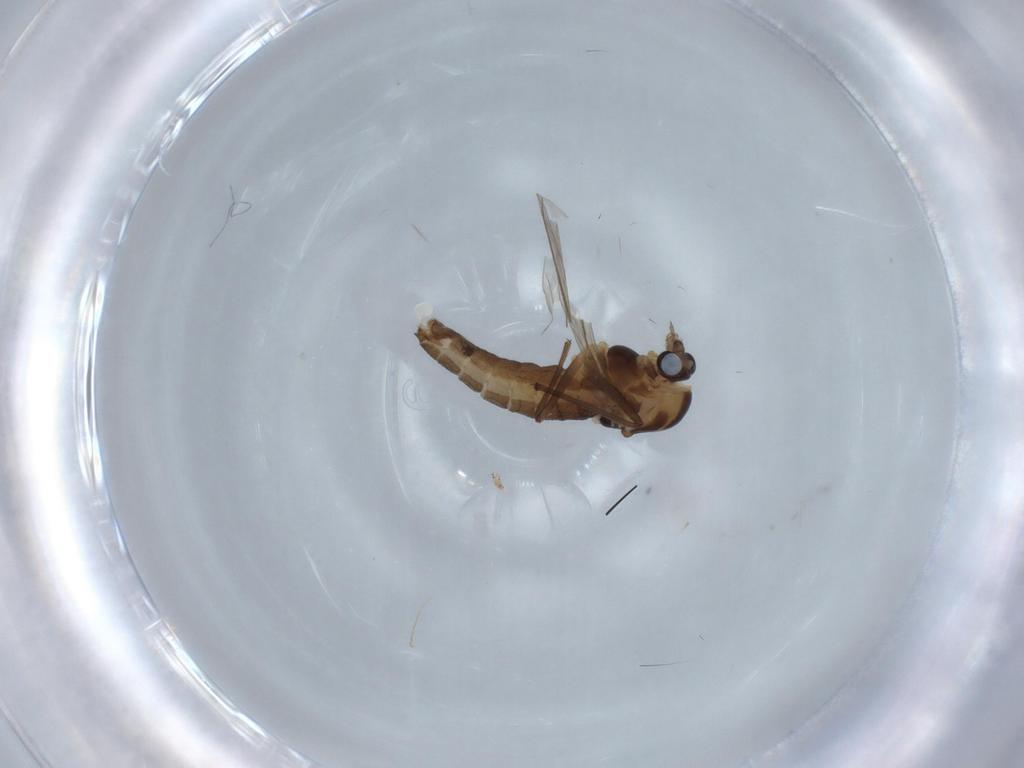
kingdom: Animalia
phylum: Arthropoda
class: Insecta
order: Diptera
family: Chironomidae
